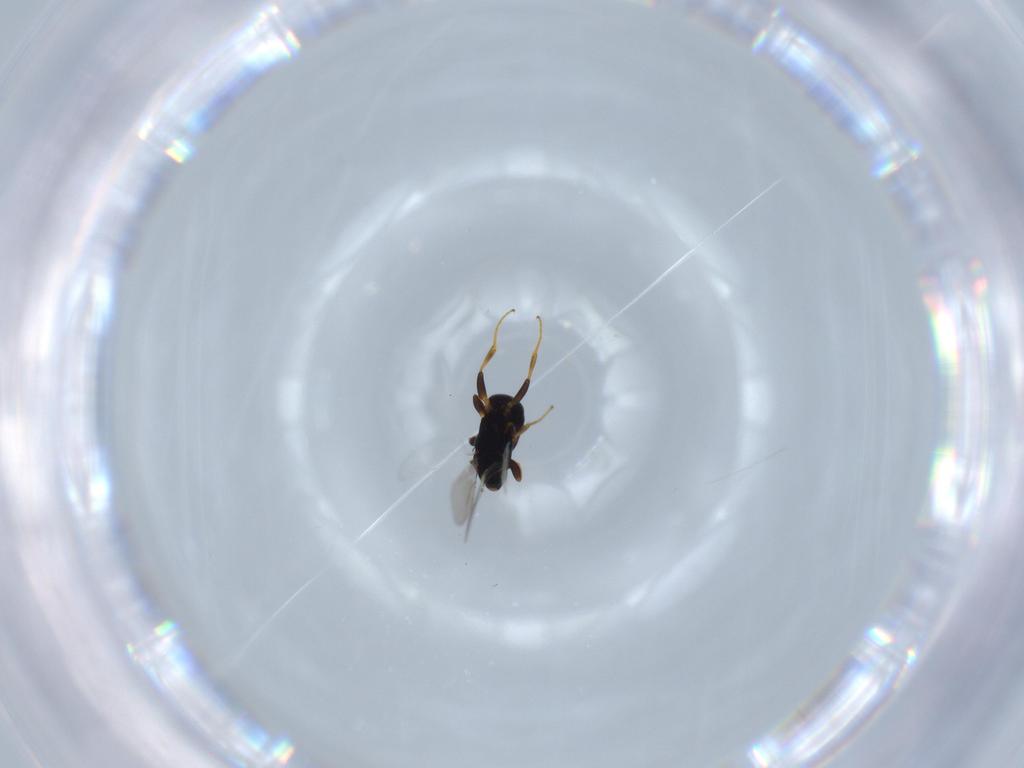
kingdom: Animalia
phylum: Arthropoda
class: Insecta
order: Hymenoptera
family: Bethylidae
